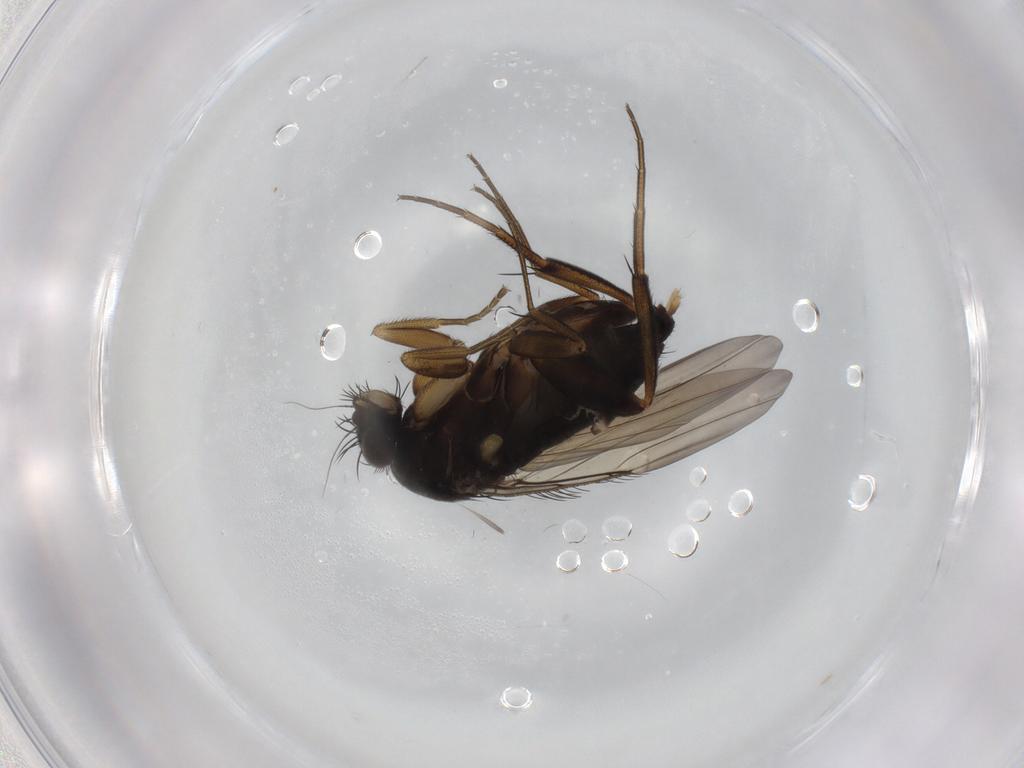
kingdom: Animalia
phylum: Arthropoda
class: Insecta
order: Diptera
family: Phoridae
